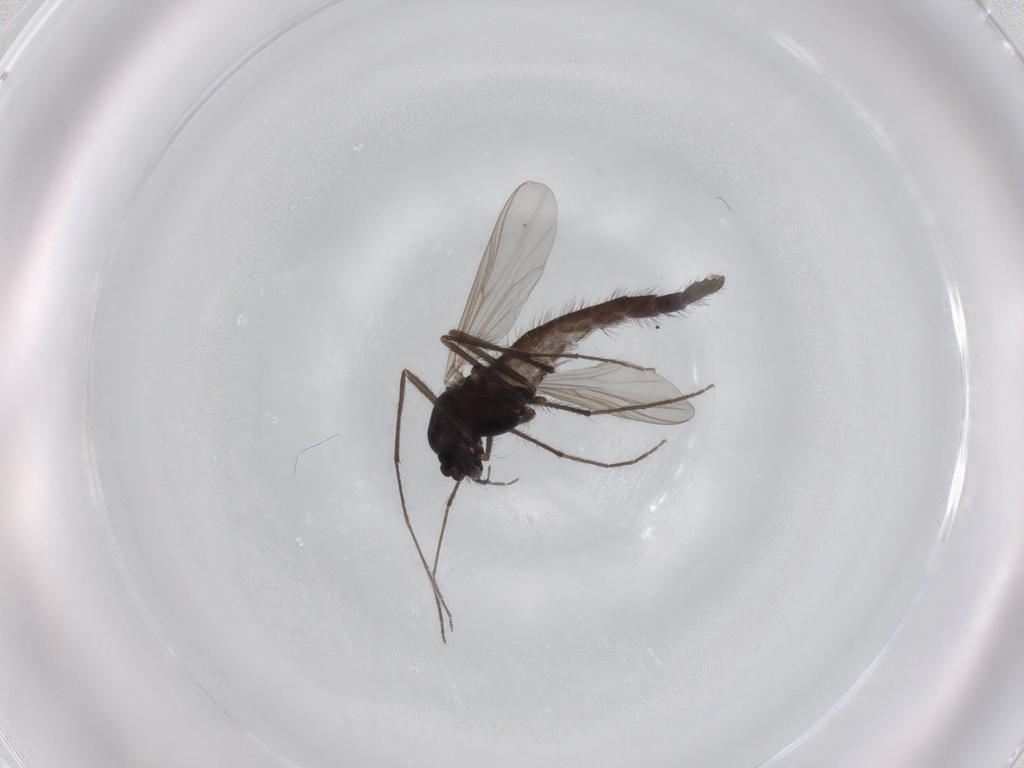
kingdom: Animalia
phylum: Arthropoda
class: Insecta
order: Diptera
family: Chironomidae
